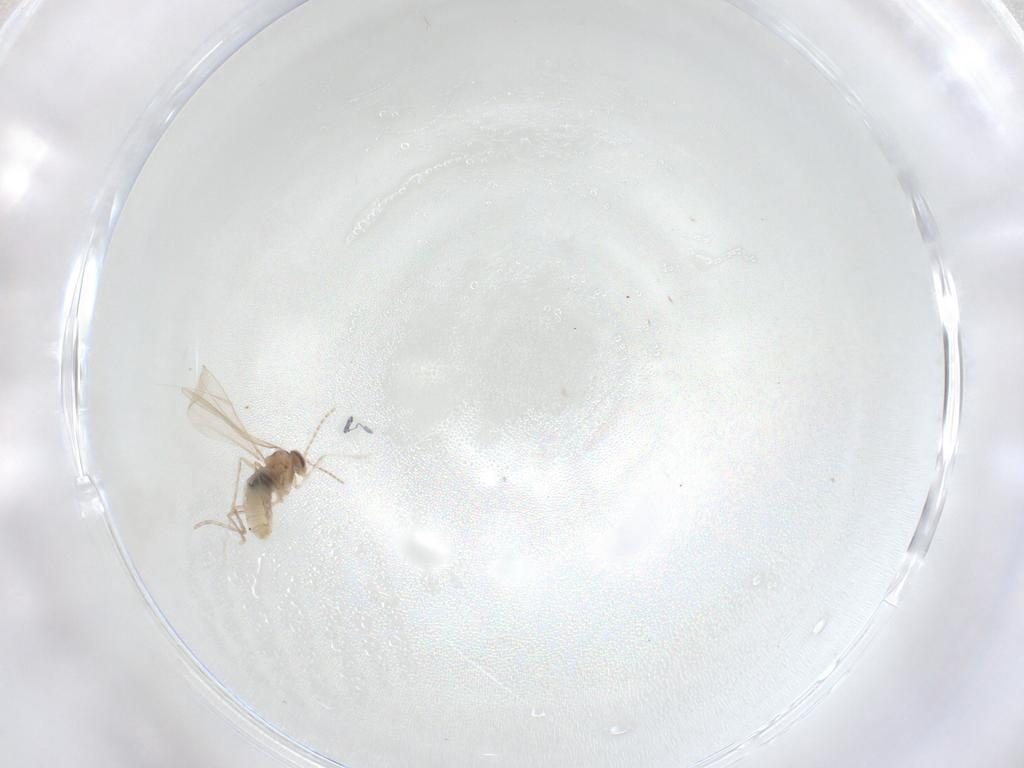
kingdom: Animalia
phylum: Arthropoda
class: Insecta
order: Diptera
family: Cecidomyiidae
